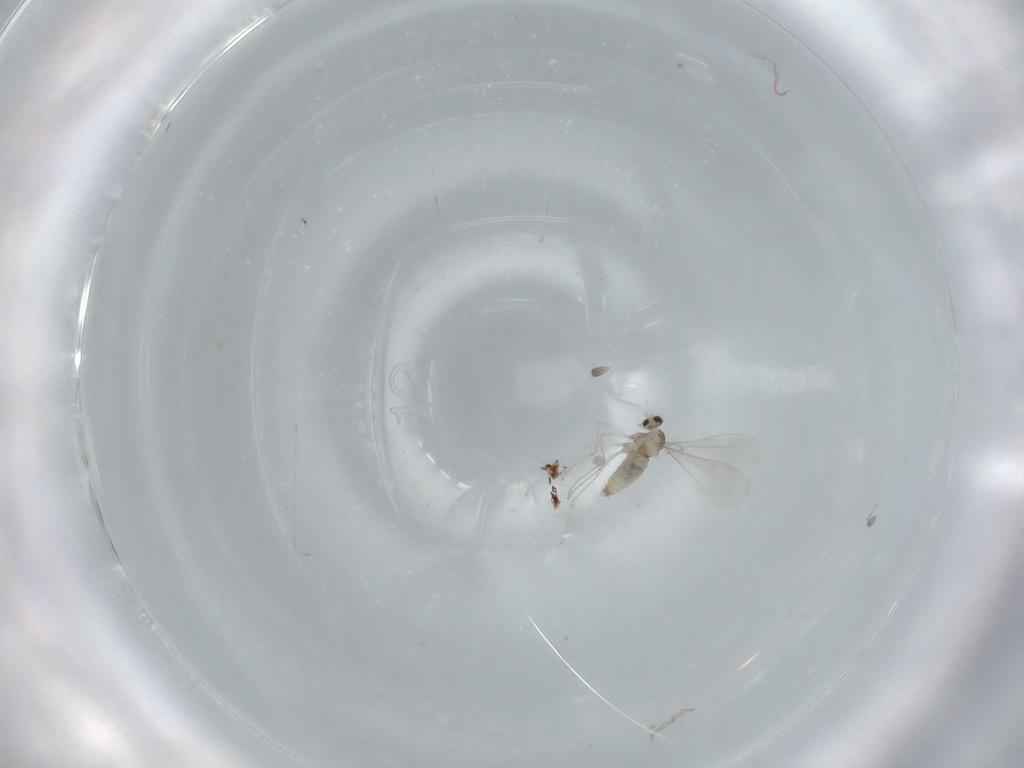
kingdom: Animalia
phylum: Arthropoda
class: Insecta
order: Diptera
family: Cecidomyiidae
